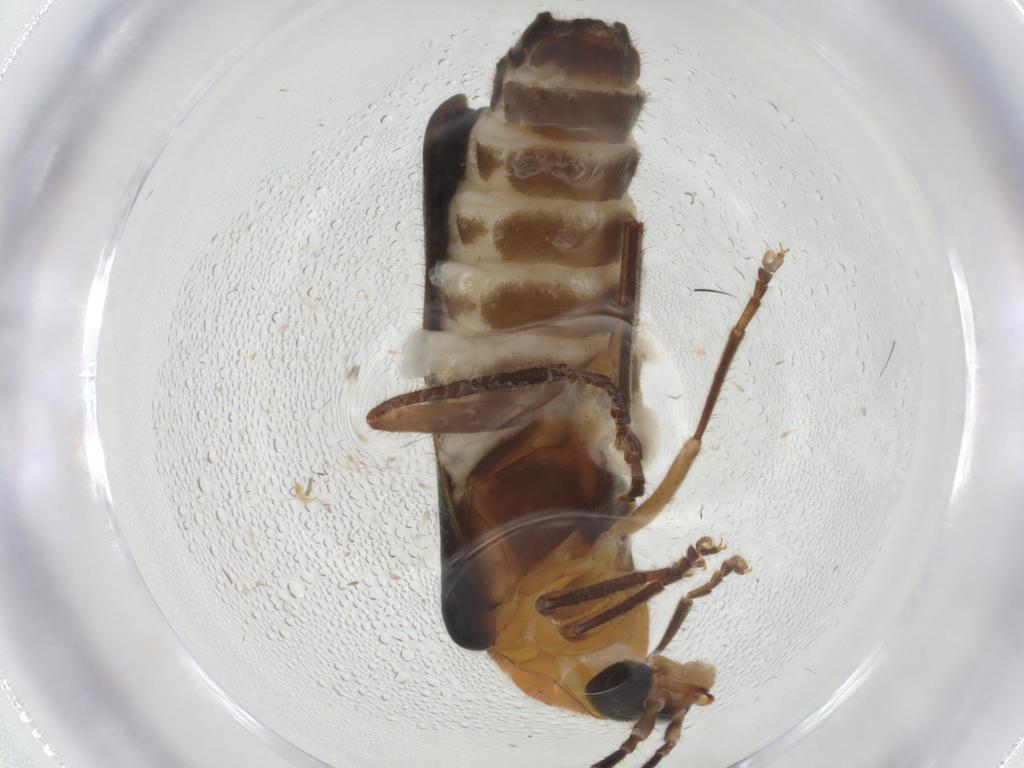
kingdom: Animalia
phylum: Arthropoda
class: Insecta
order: Coleoptera
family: Cantharidae
